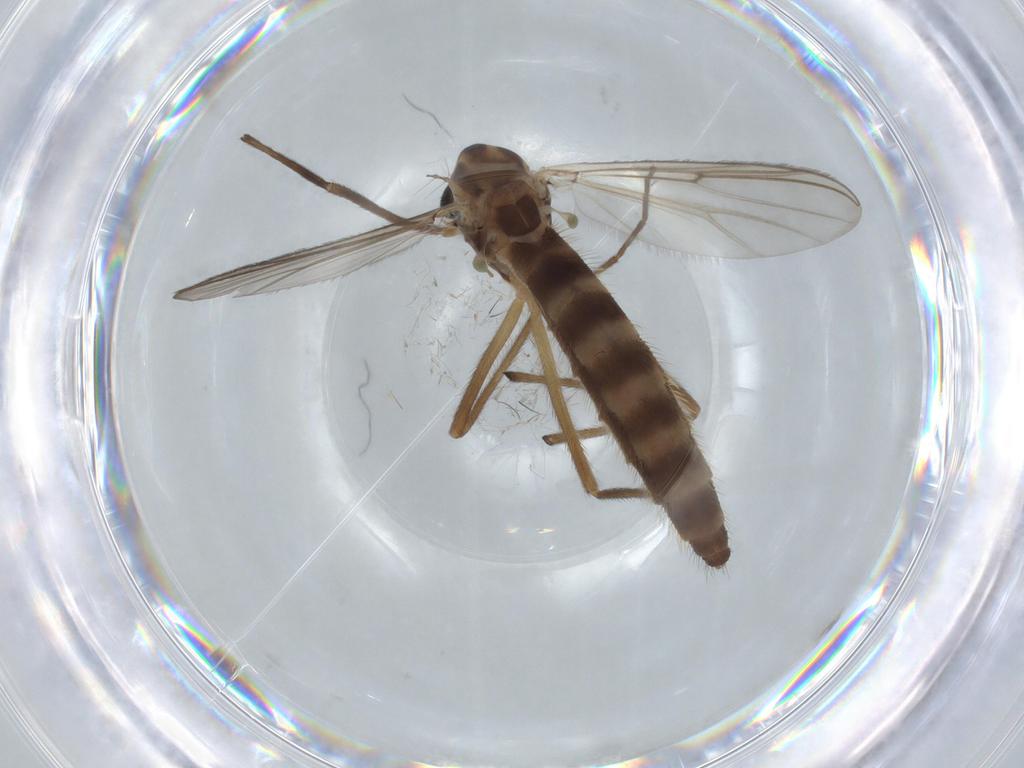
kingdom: Animalia
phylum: Arthropoda
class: Insecta
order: Diptera
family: Chironomidae
